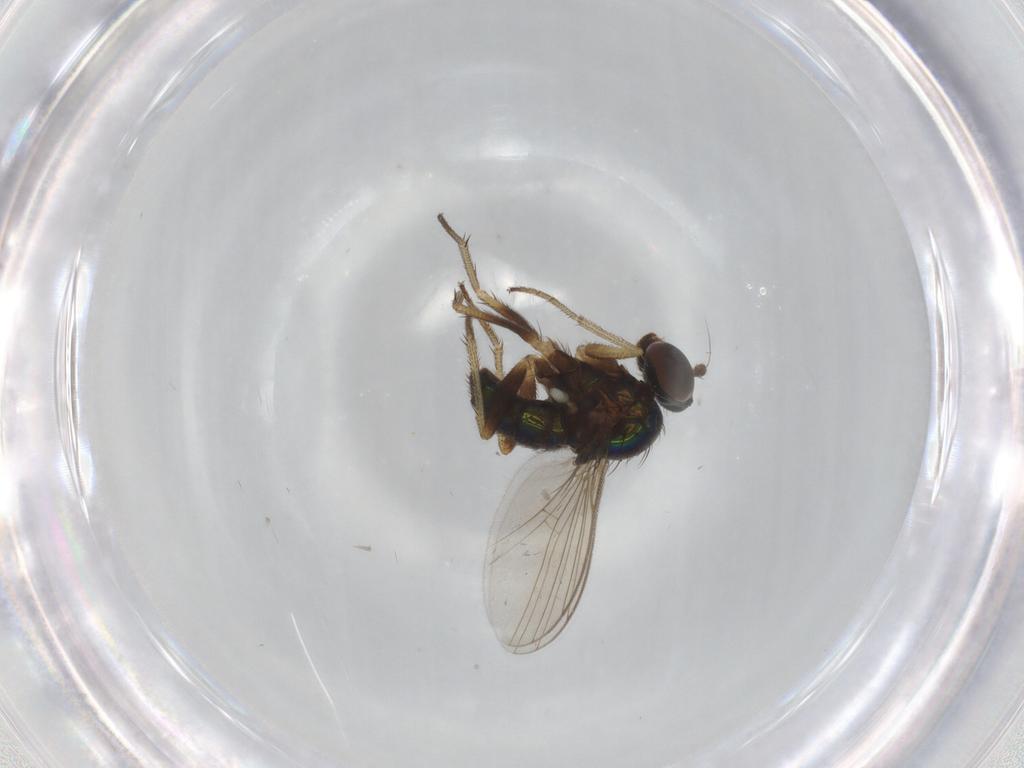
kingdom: Animalia
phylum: Arthropoda
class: Insecta
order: Diptera
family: Dolichopodidae
